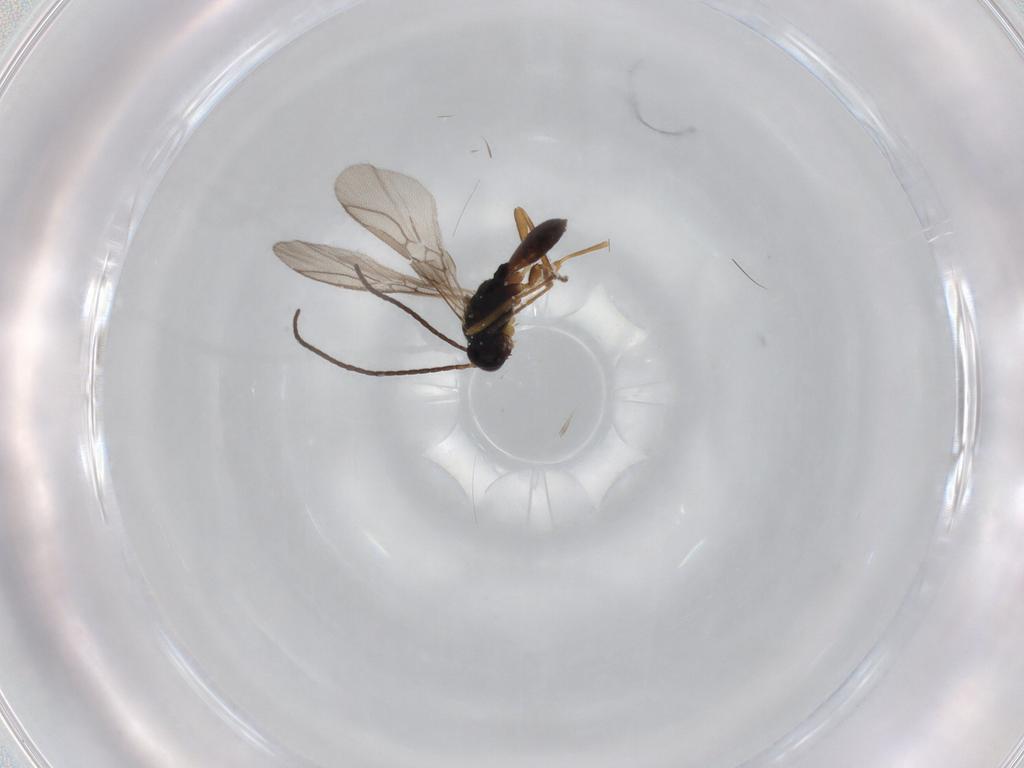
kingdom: Animalia
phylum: Arthropoda
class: Insecta
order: Hymenoptera
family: Braconidae
